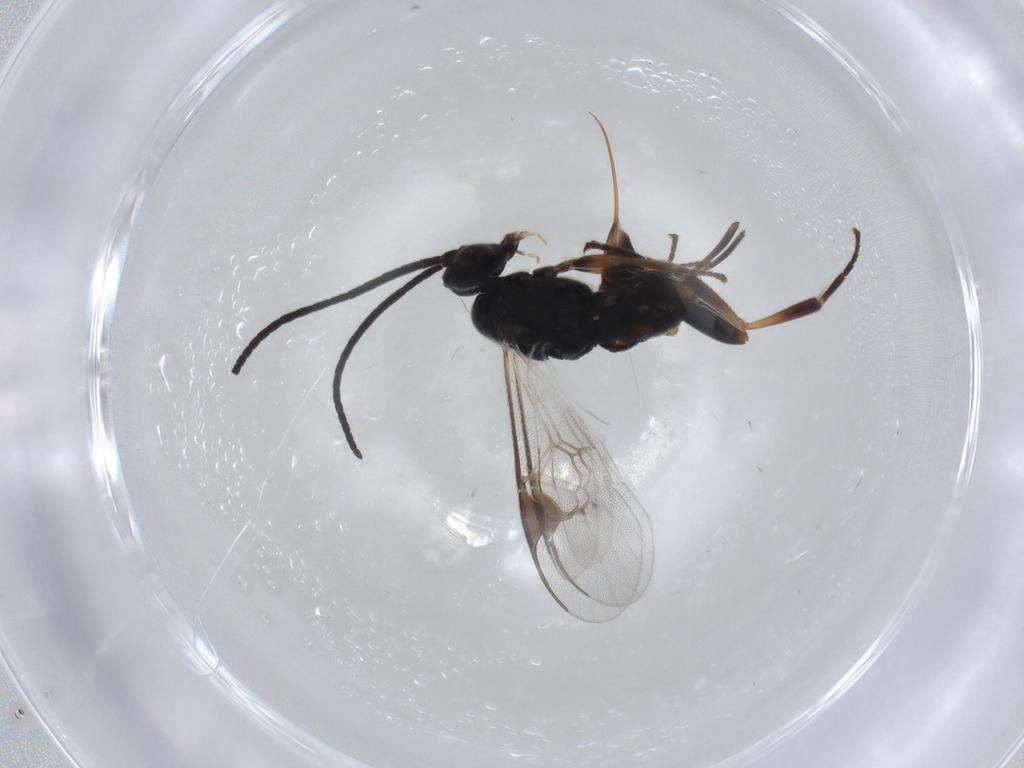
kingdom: Animalia
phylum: Arthropoda
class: Insecta
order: Hymenoptera
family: Braconidae
